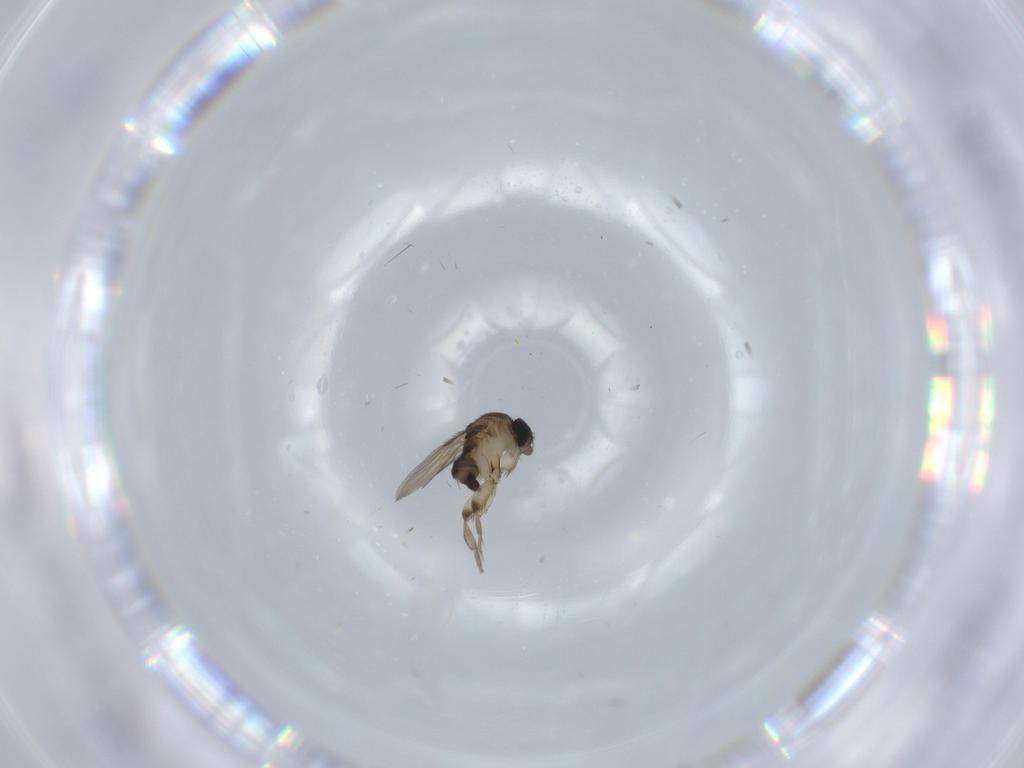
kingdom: Animalia
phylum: Arthropoda
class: Insecta
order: Diptera
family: Phoridae
